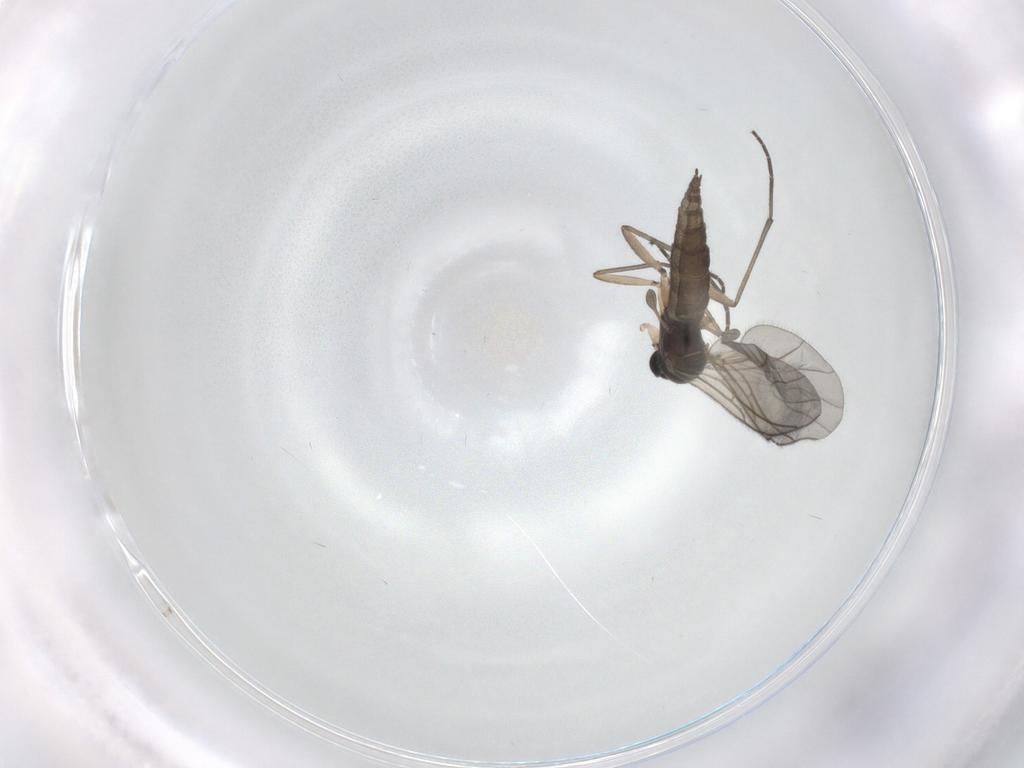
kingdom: Animalia
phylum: Arthropoda
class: Insecta
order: Diptera
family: Sciaridae
